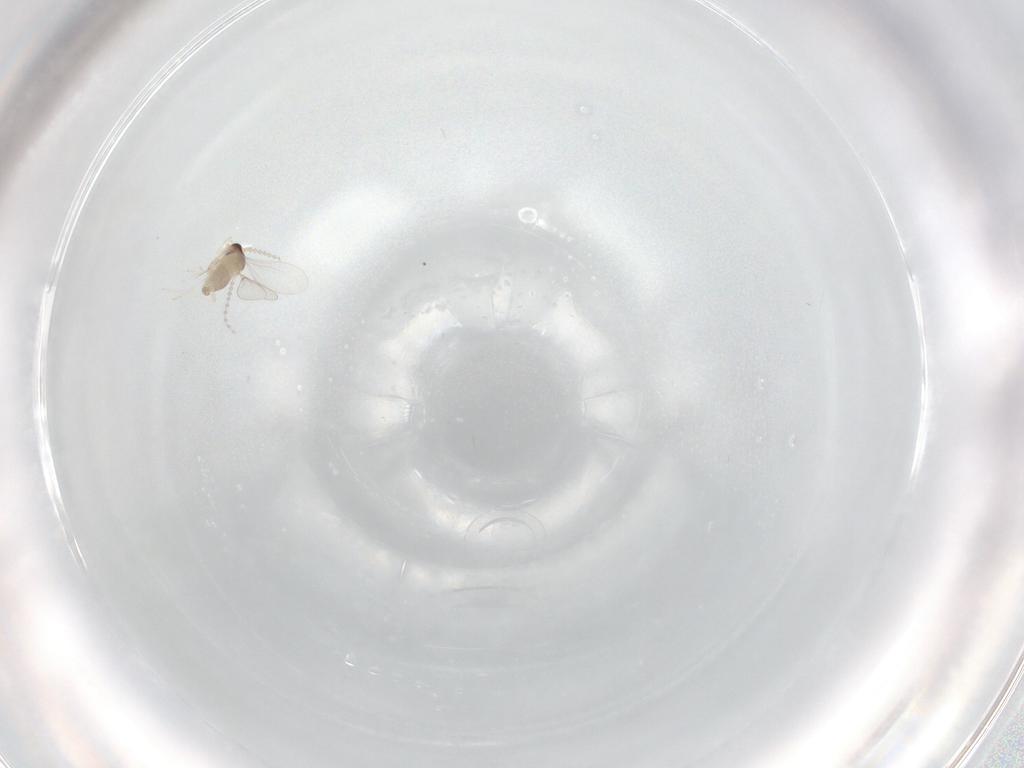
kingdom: Animalia
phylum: Arthropoda
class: Insecta
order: Diptera
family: Cecidomyiidae
